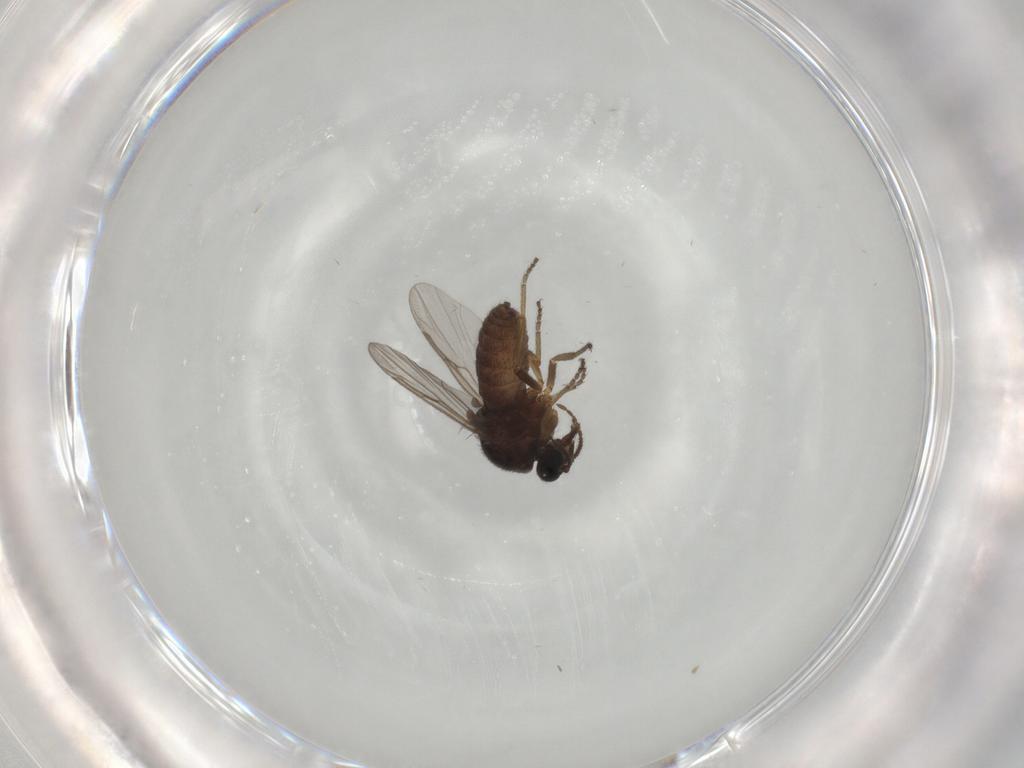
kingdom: Animalia
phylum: Arthropoda
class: Insecta
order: Diptera
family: Ceratopogonidae
